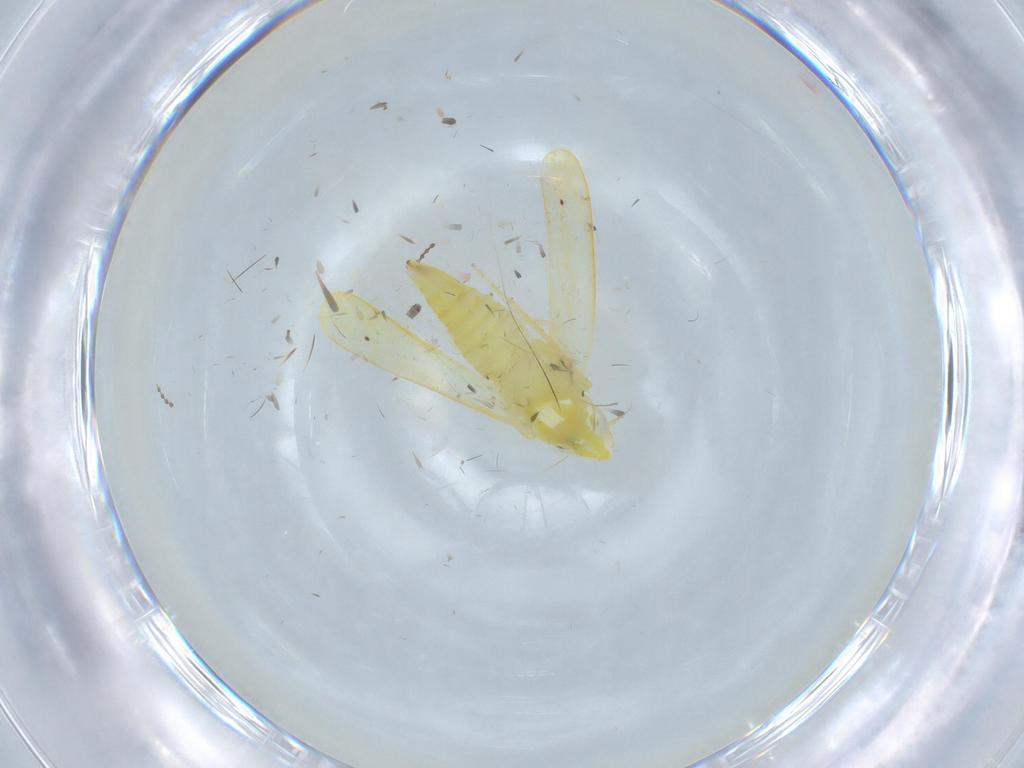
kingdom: Animalia
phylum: Arthropoda
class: Insecta
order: Hemiptera
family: Cicadellidae
